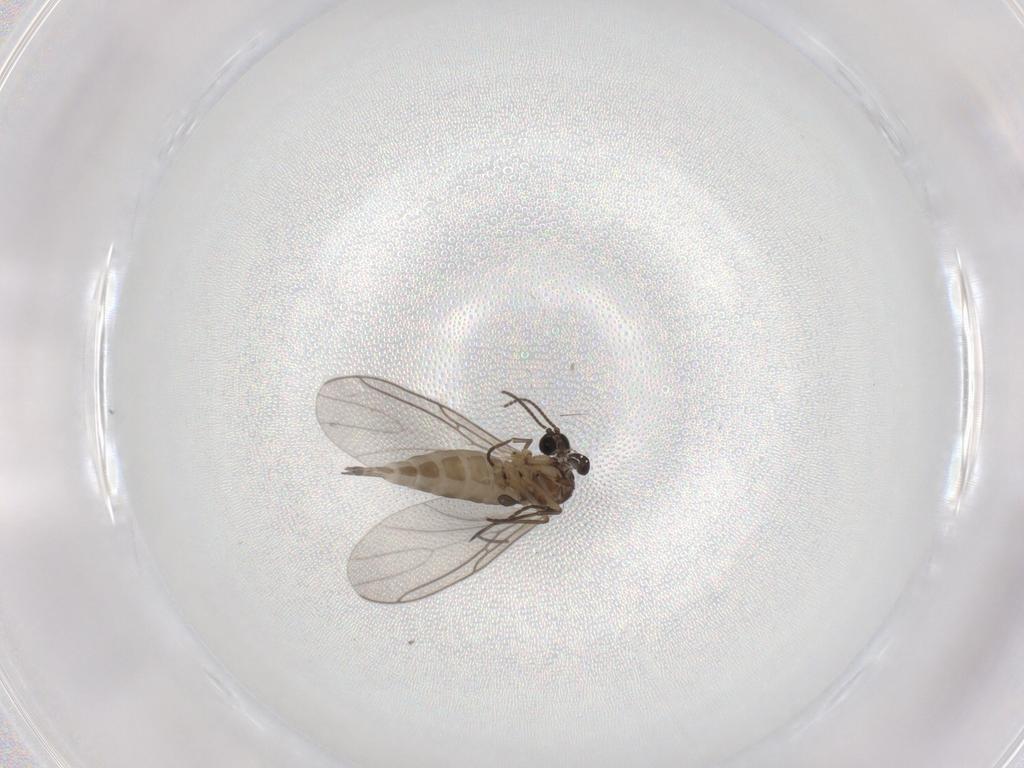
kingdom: Animalia
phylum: Arthropoda
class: Insecta
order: Diptera
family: Sciaridae
